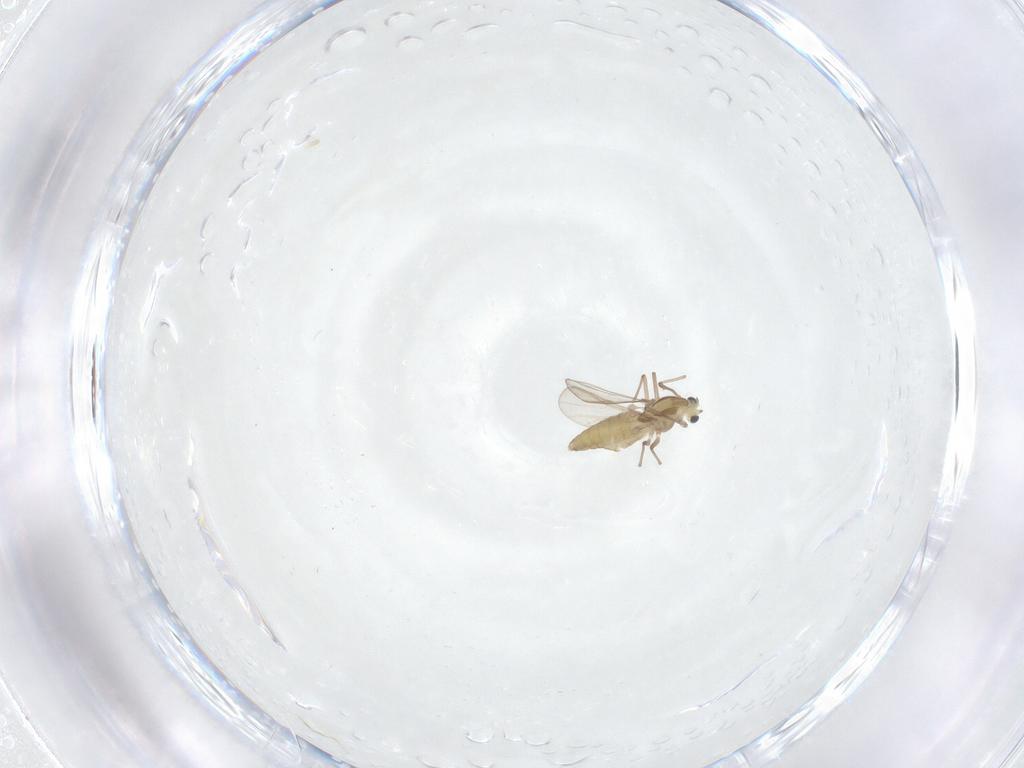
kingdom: Animalia
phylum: Arthropoda
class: Insecta
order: Diptera
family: Chironomidae
